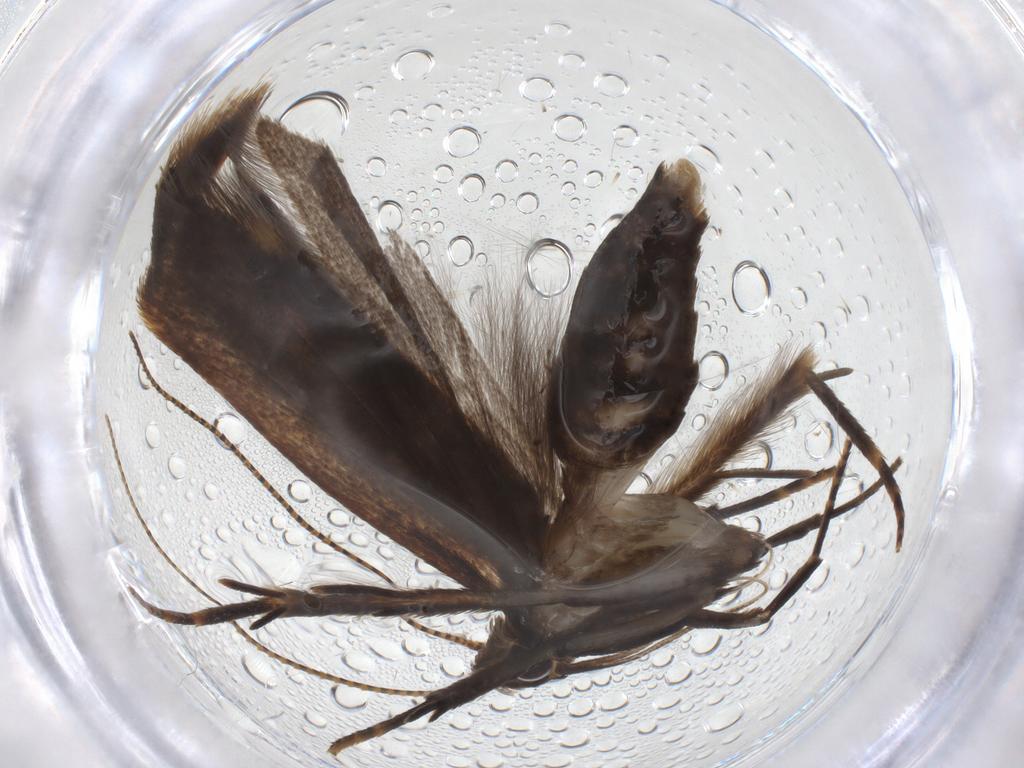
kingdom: Animalia
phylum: Arthropoda
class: Insecta
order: Lepidoptera
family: Gelechiidae
